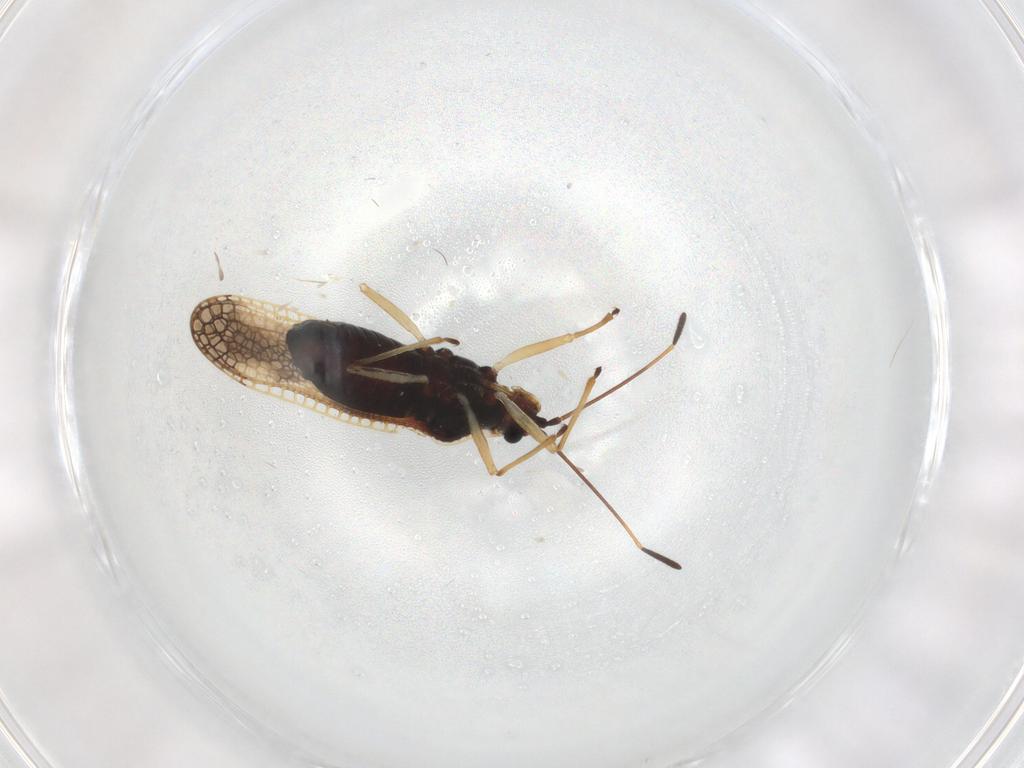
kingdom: Animalia
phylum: Arthropoda
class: Insecta
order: Hemiptera
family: Tingidae
